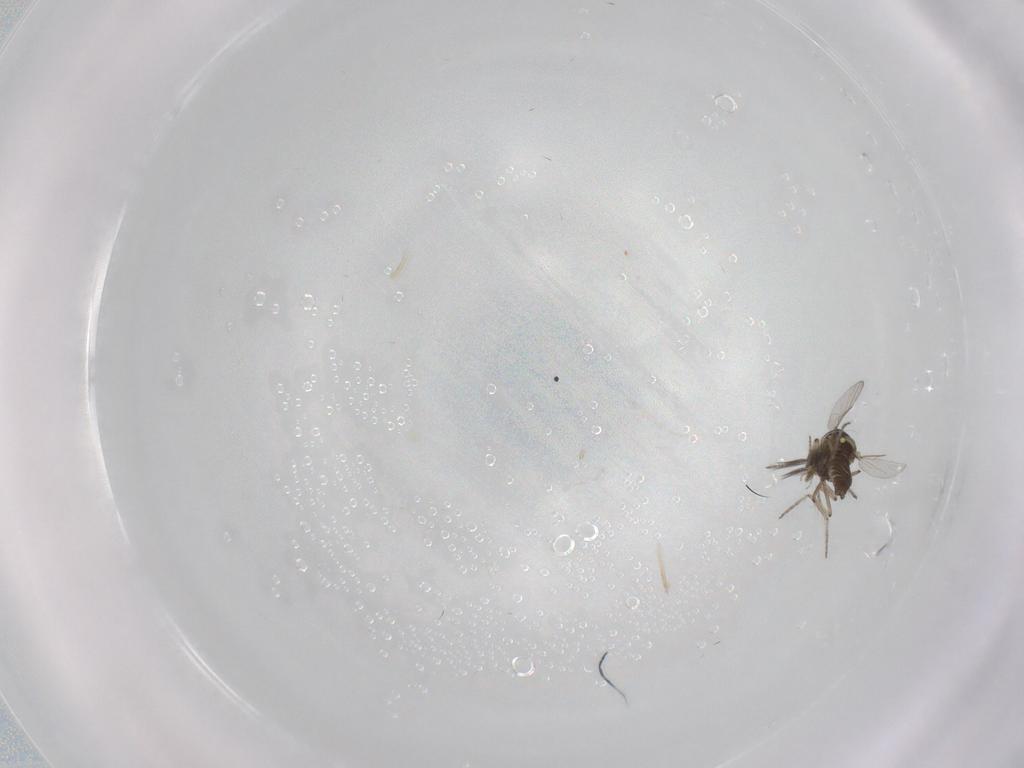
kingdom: Animalia
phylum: Arthropoda
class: Insecta
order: Diptera
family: Ceratopogonidae
